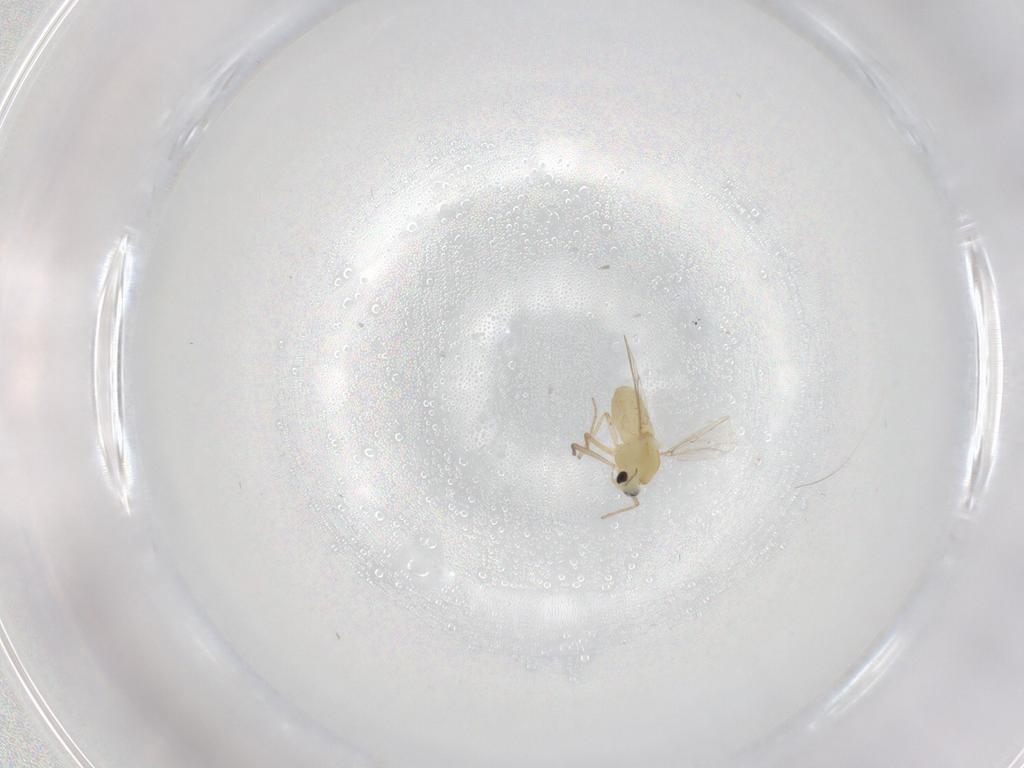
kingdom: Animalia
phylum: Arthropoda
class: Insecta
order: Diptera
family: Chironomidae
